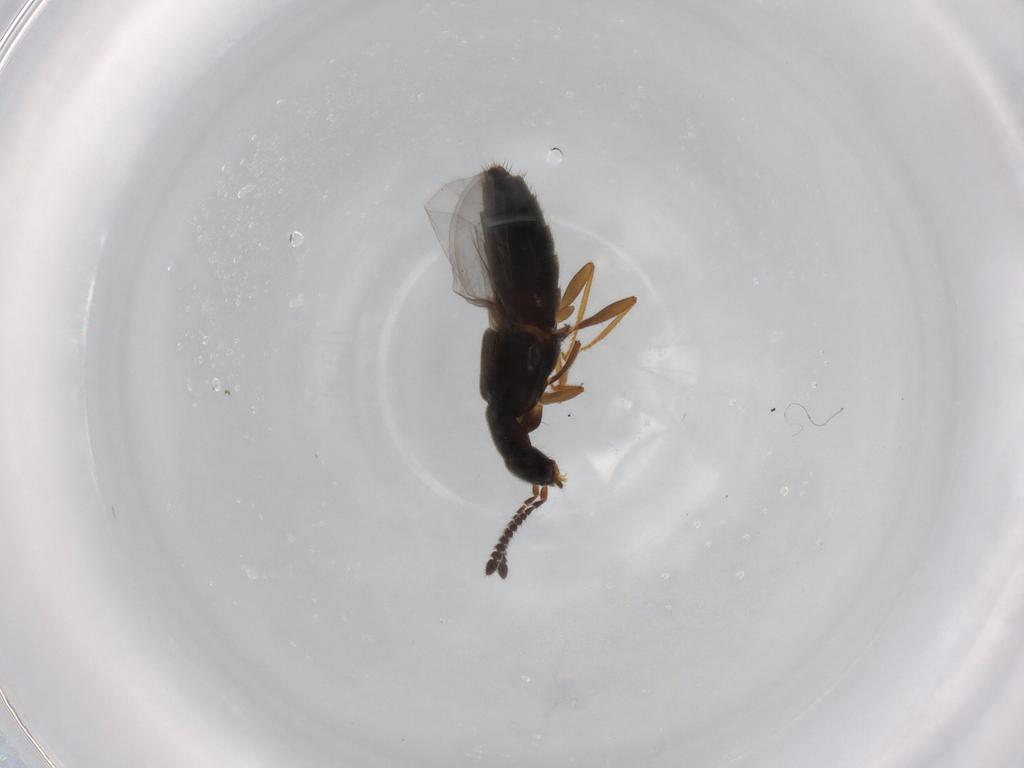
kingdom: Animalia
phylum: Arthropoda
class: Insecta
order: Coleoptera
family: Staphylinidae
